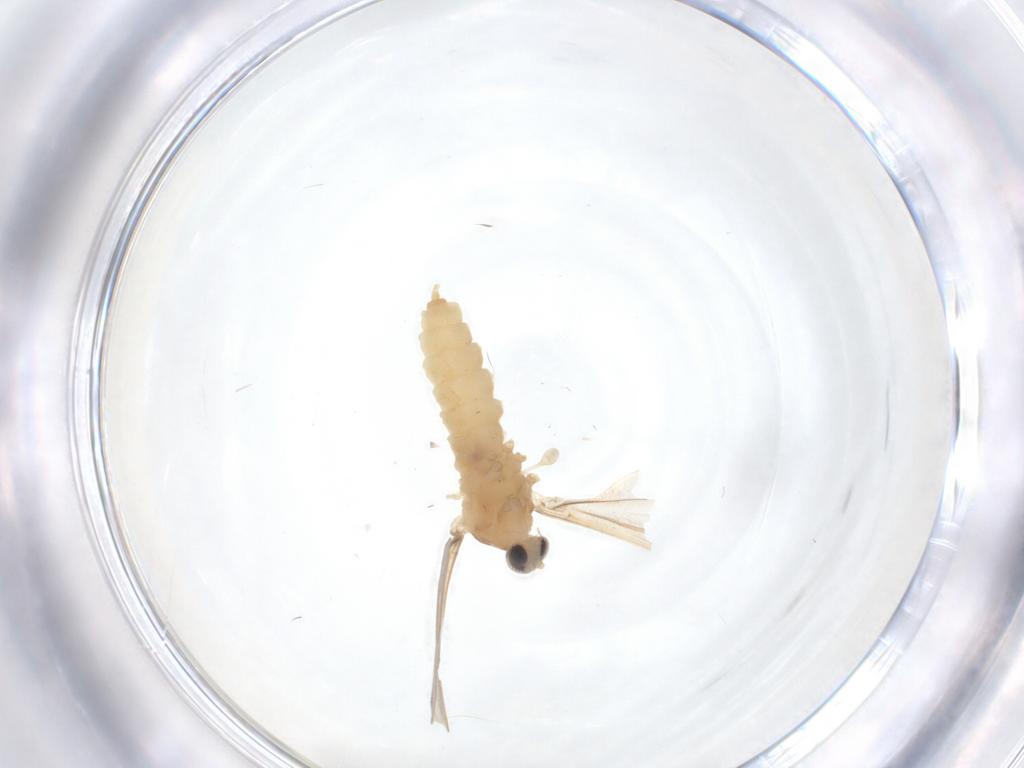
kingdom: Animalia
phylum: Arthropoda
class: Insecta
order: Diptera
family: Cecidomyiidae
